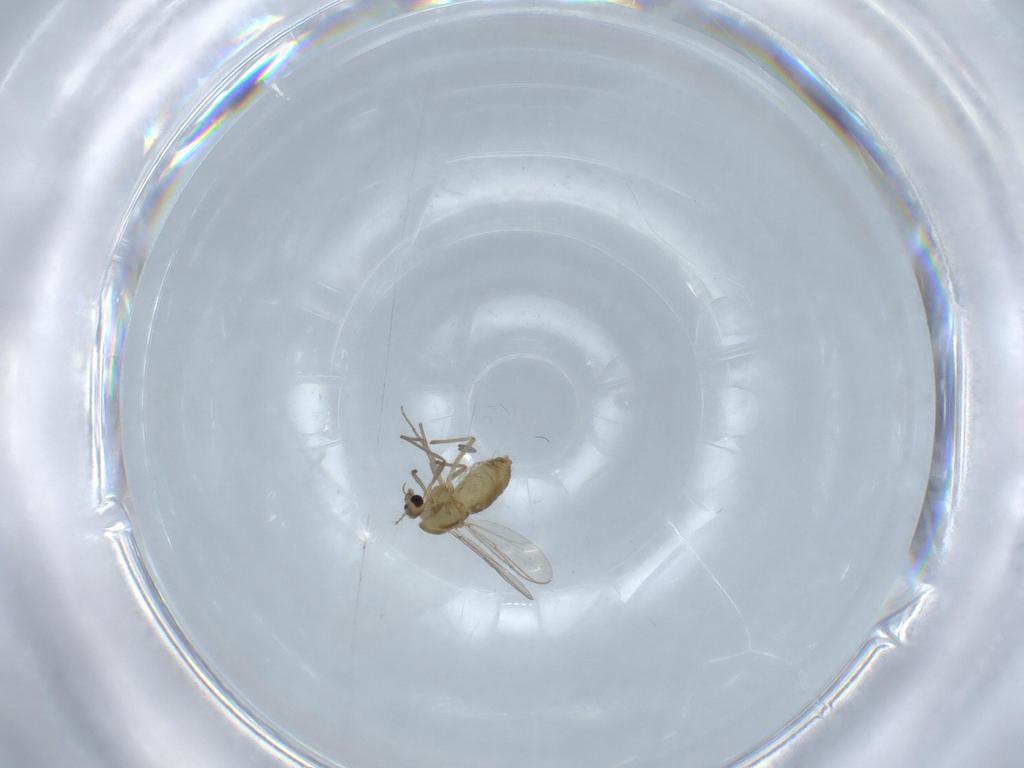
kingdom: Animalia
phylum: Arthropoda
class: Insecta
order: Diptera
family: Chironomidae
